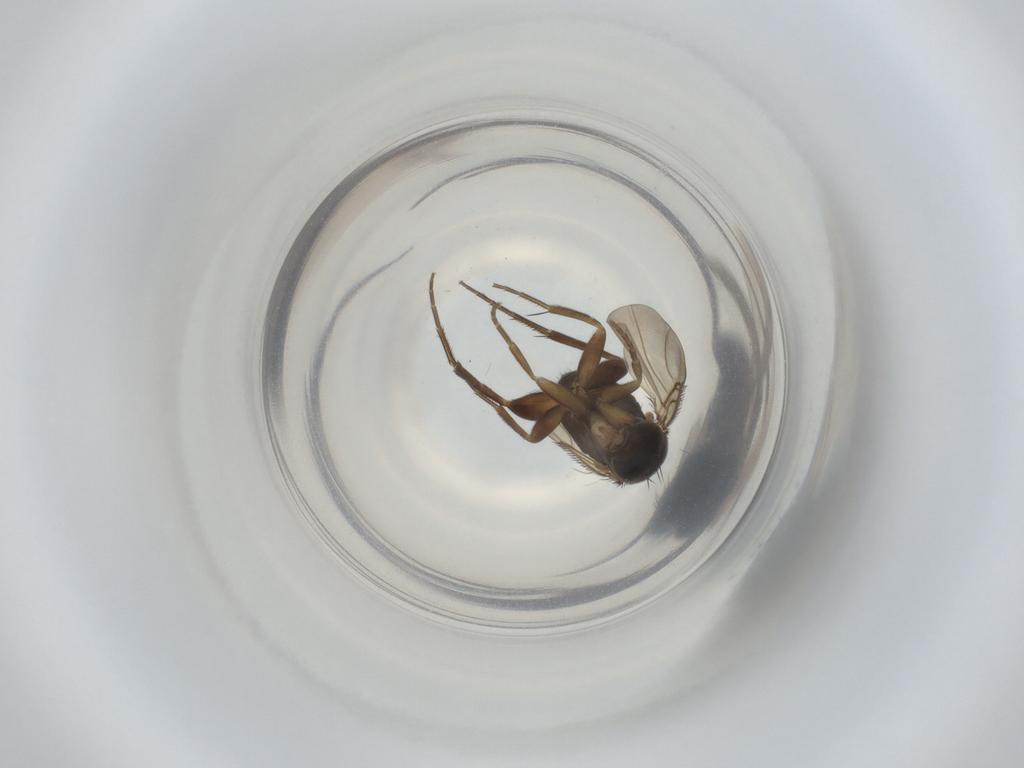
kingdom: Animalia
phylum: Arthropoda
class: Insecta
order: Diptera
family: Phoridae
